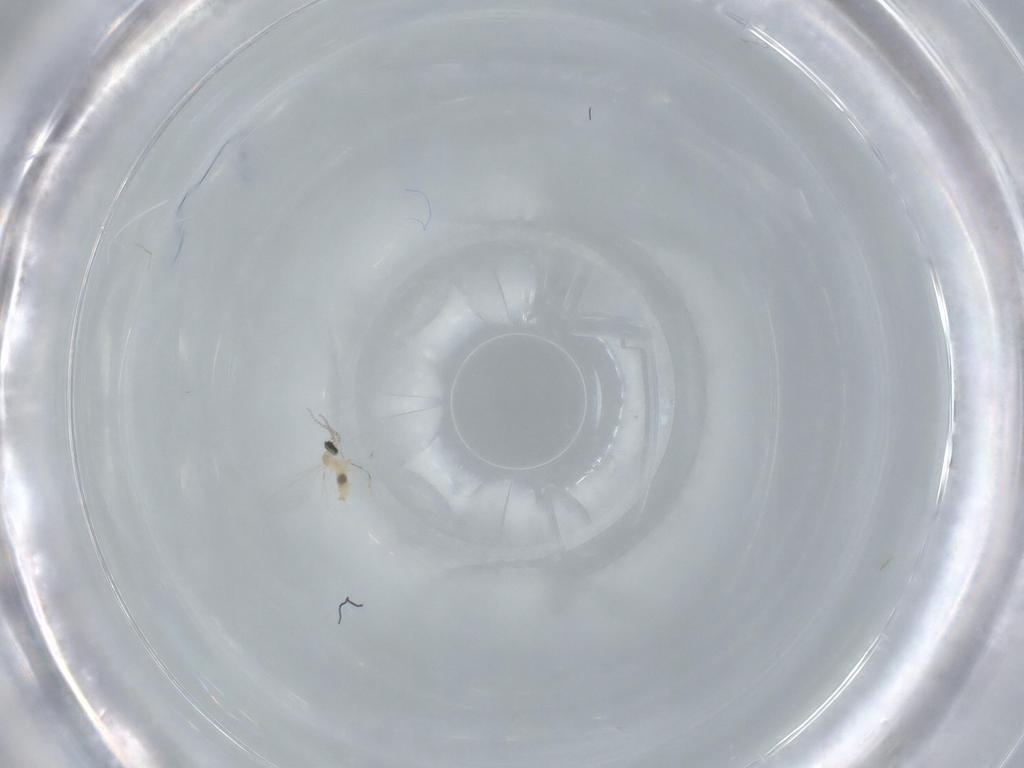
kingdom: Animalia
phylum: Arthropoda
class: Insecta
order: Diptera
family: Cecidomyiidae
